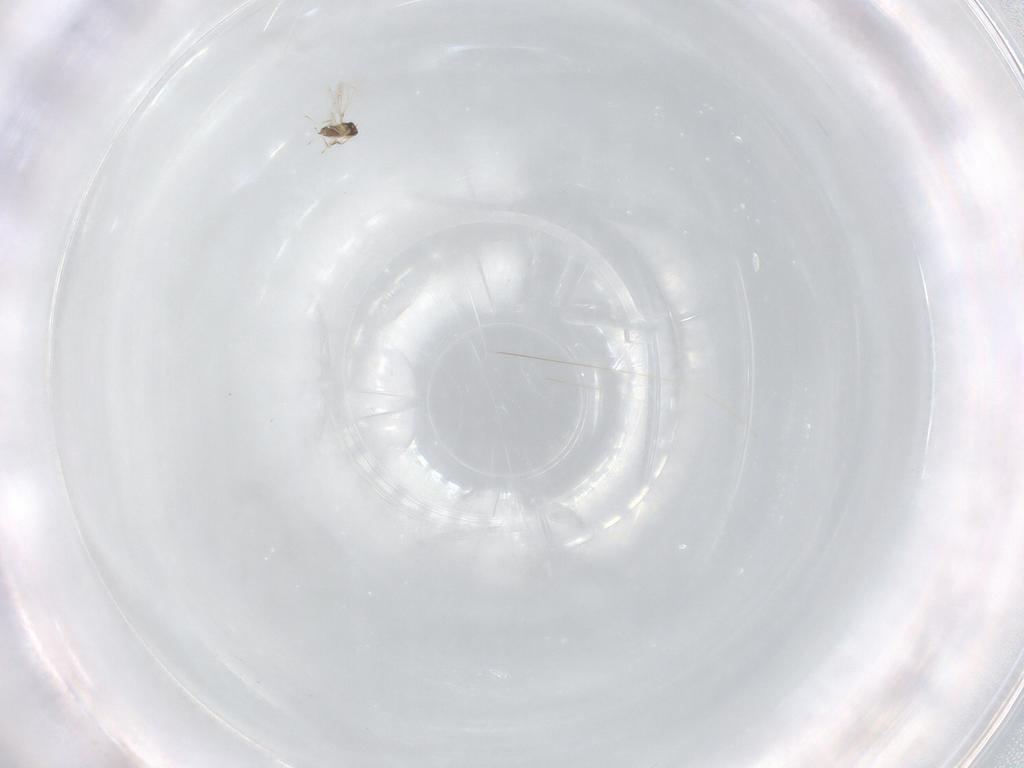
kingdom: Animalia
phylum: Arthropoda
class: Insecta
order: Hymenoptera
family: Mymaridae
